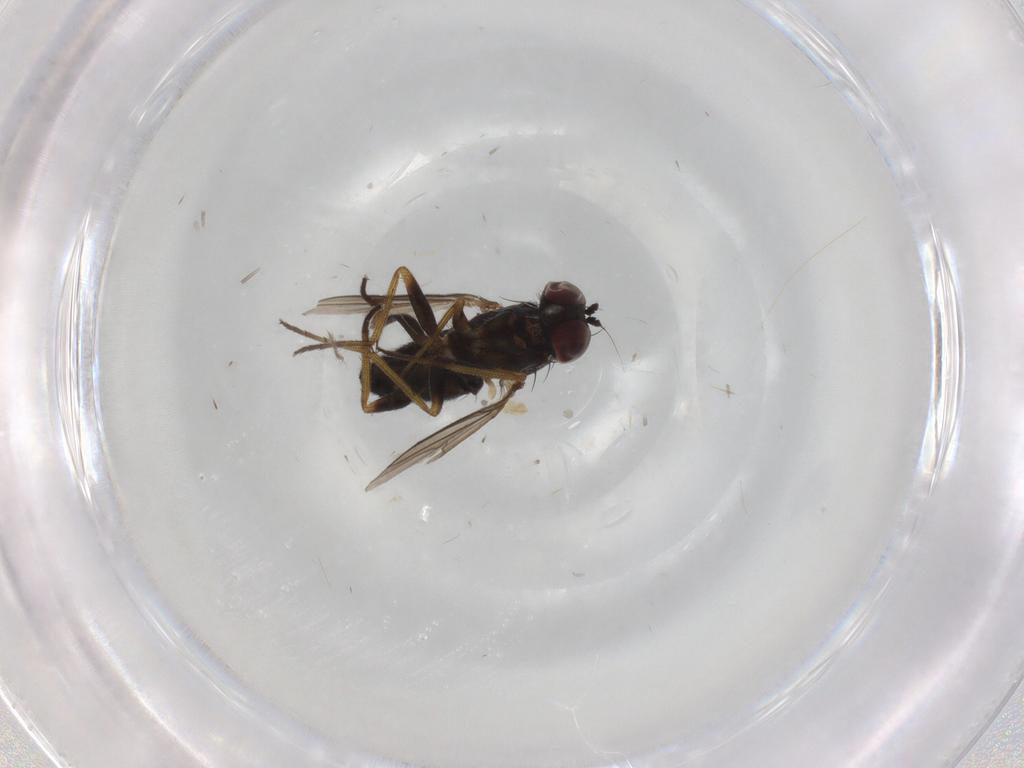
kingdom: Animalia
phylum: Arthropoda
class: Insecta
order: Diptera
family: Dolichopodidae
